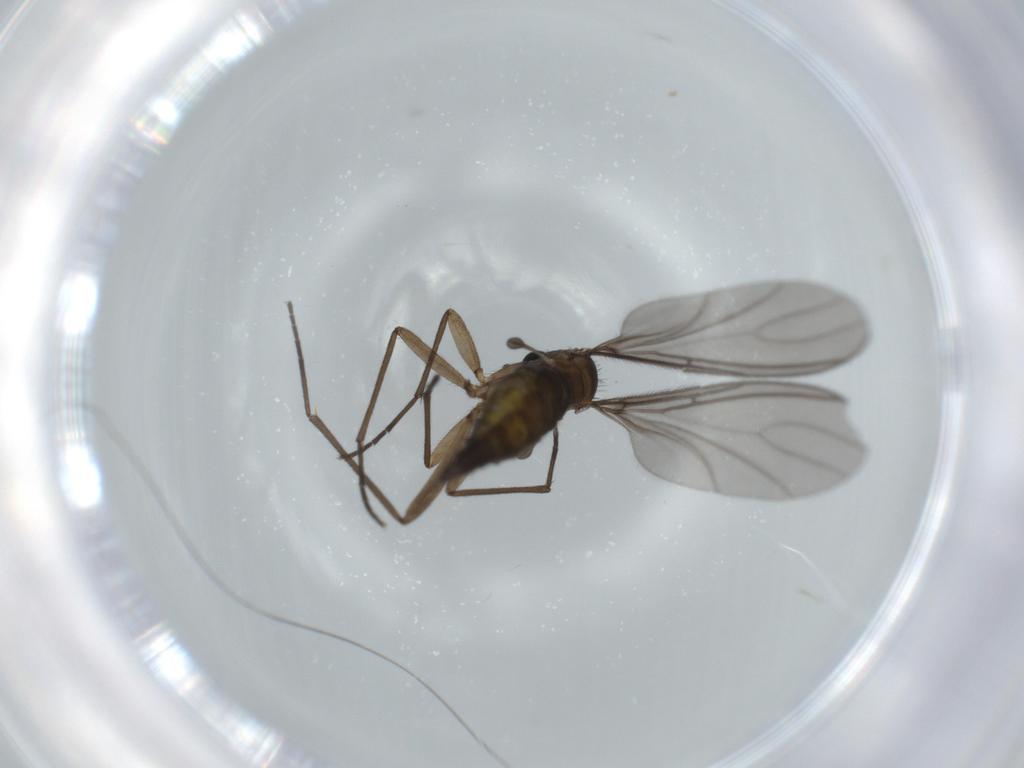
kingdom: Animalia
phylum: Arthropoda
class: Insecta
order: Diptera
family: Sciaridae
